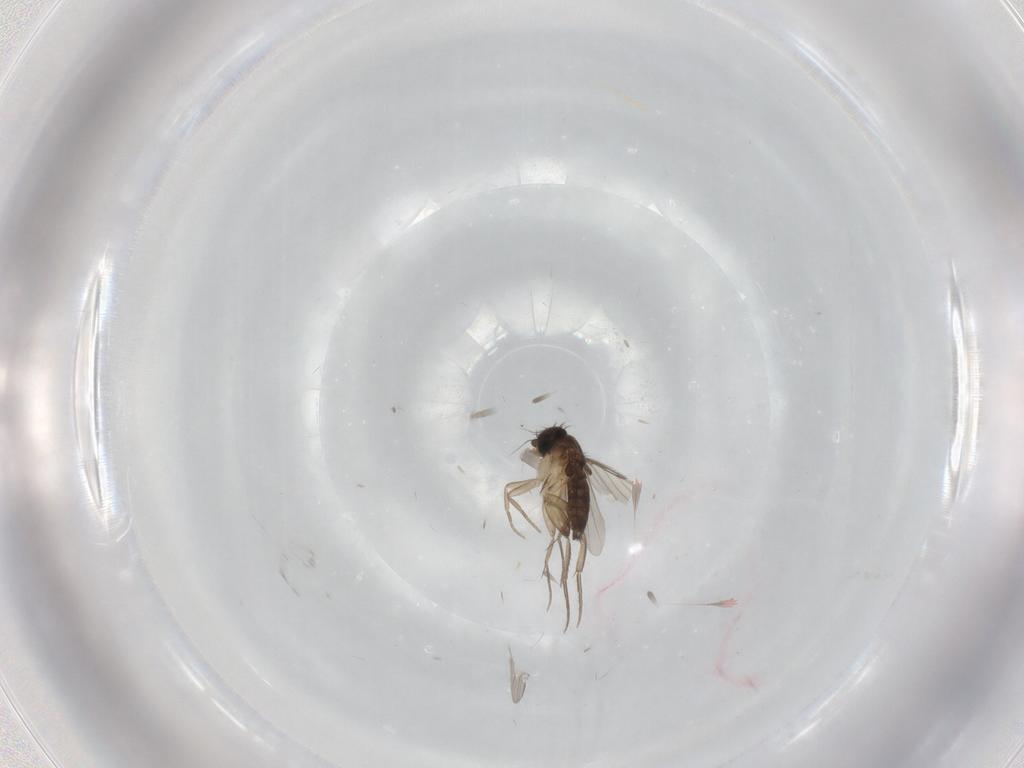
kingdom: Animalia
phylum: Arthropoda
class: Insecta
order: Diptera
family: Phoridae
